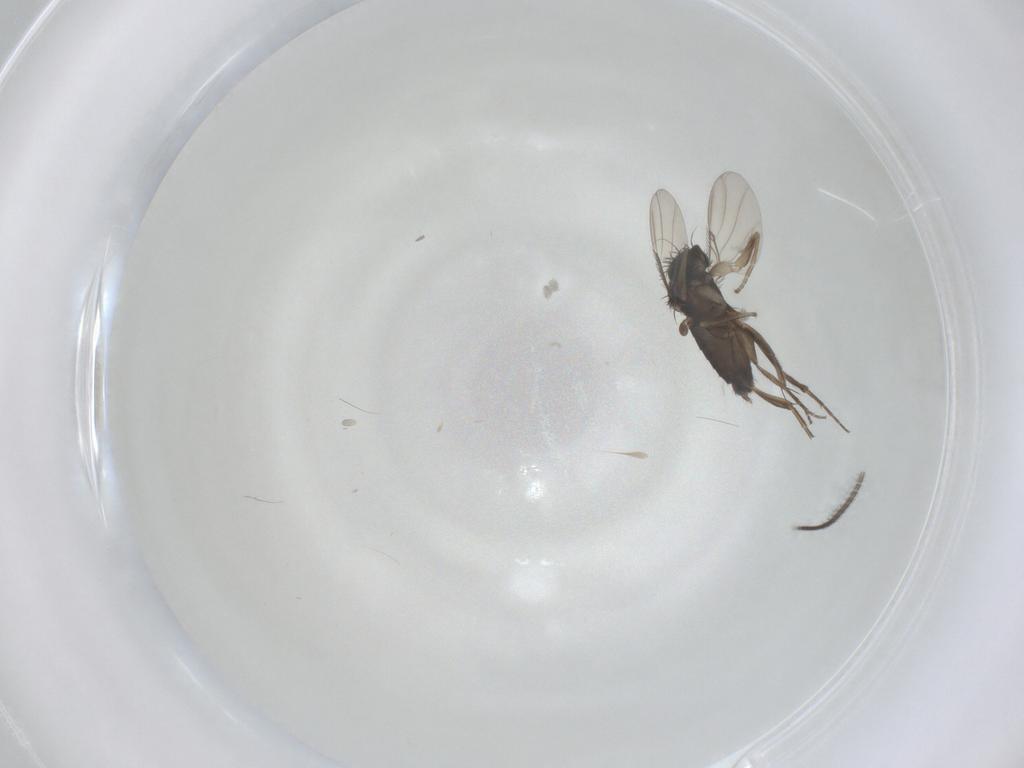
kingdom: Animalia
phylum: Arthropoda
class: Insecta
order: Diptera
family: Sciaridae
